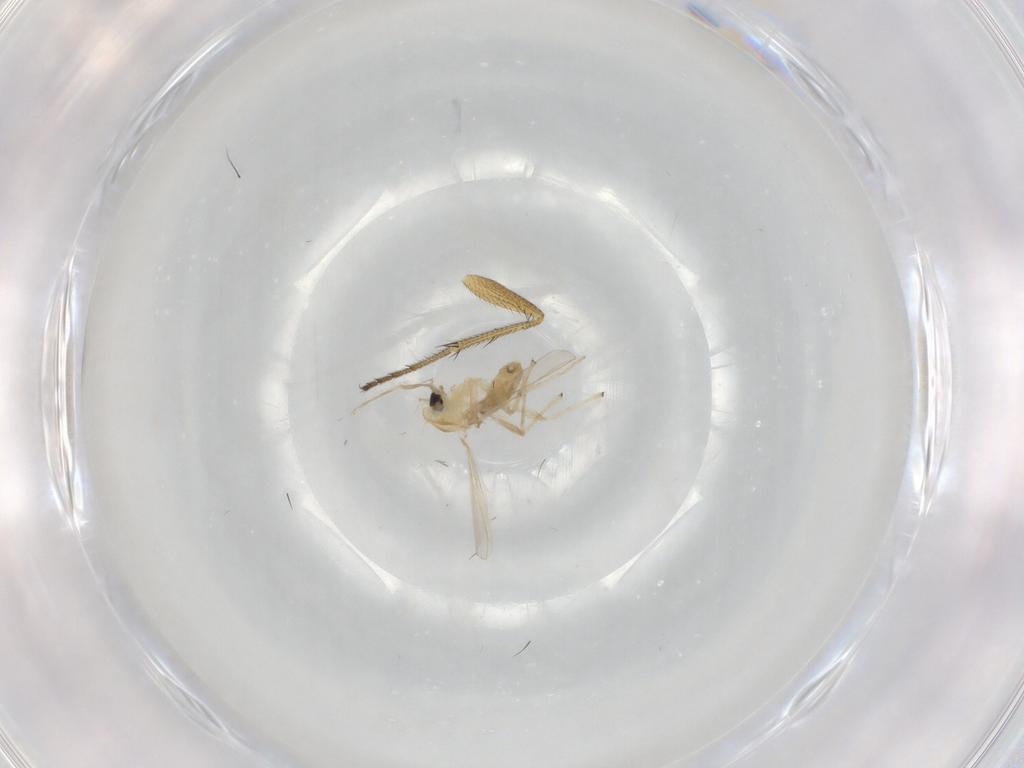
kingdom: Animalia
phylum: Arthropoda
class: Insecta
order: Diptera
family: Chironomidae
